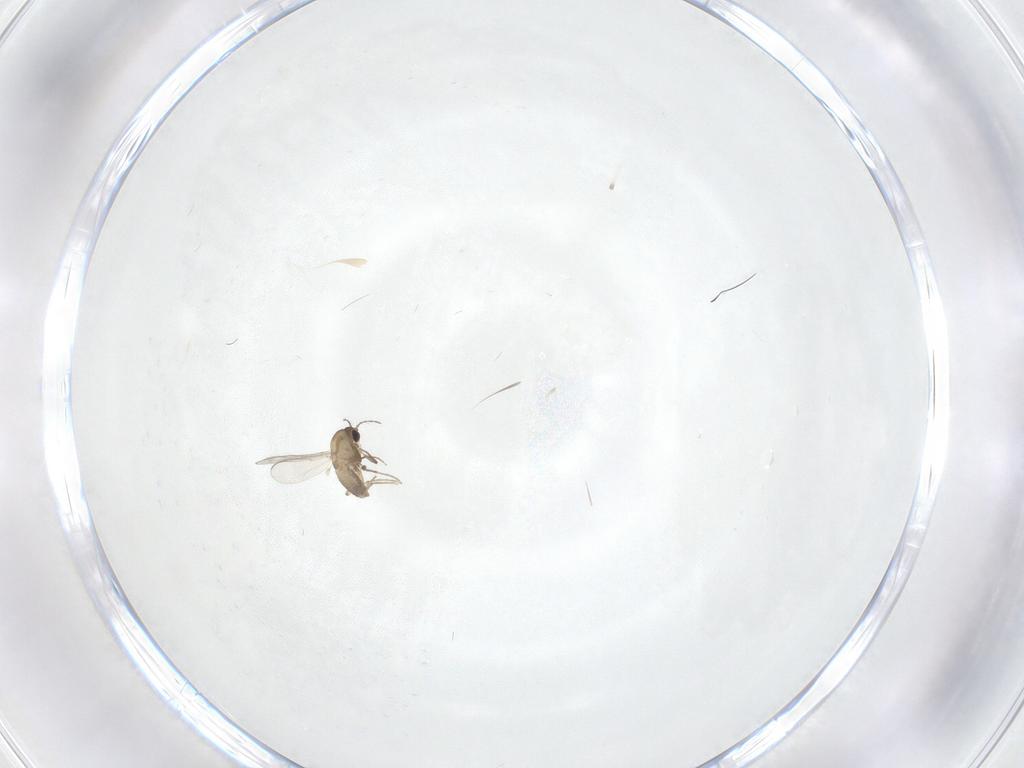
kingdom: Animalia
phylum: Arthropoda
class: Insecta
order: Diptera
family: Chironomidae
